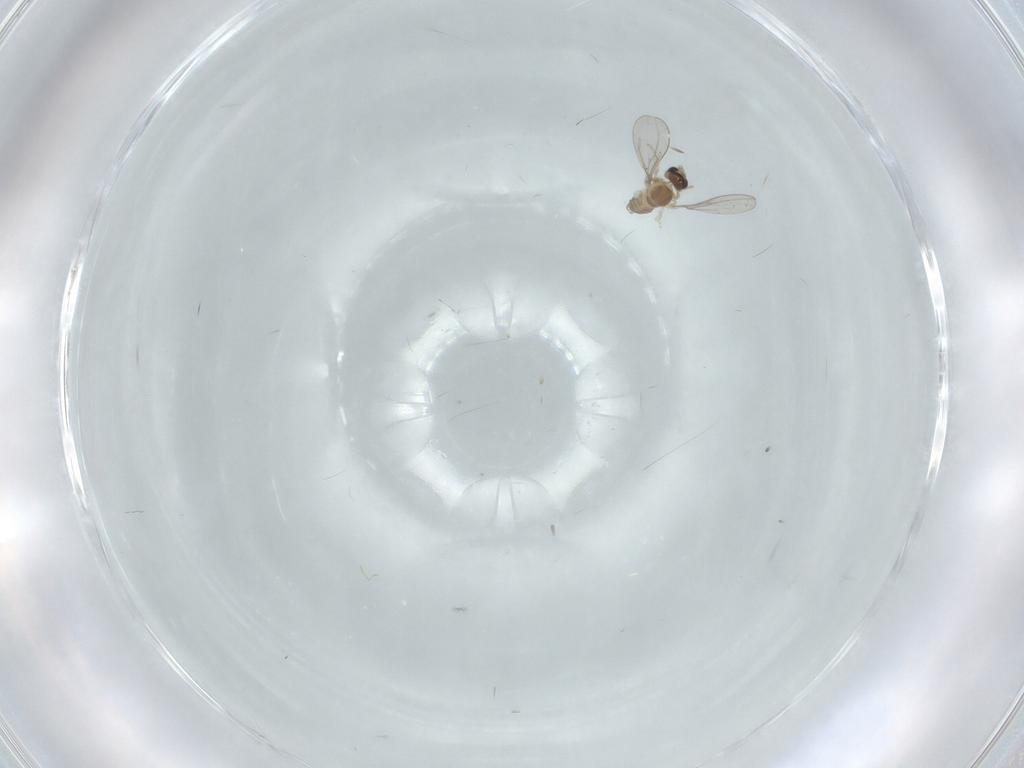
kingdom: Animalia
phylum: Arthropoda
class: Insecta
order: Diptera
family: Cecidomyiidae
